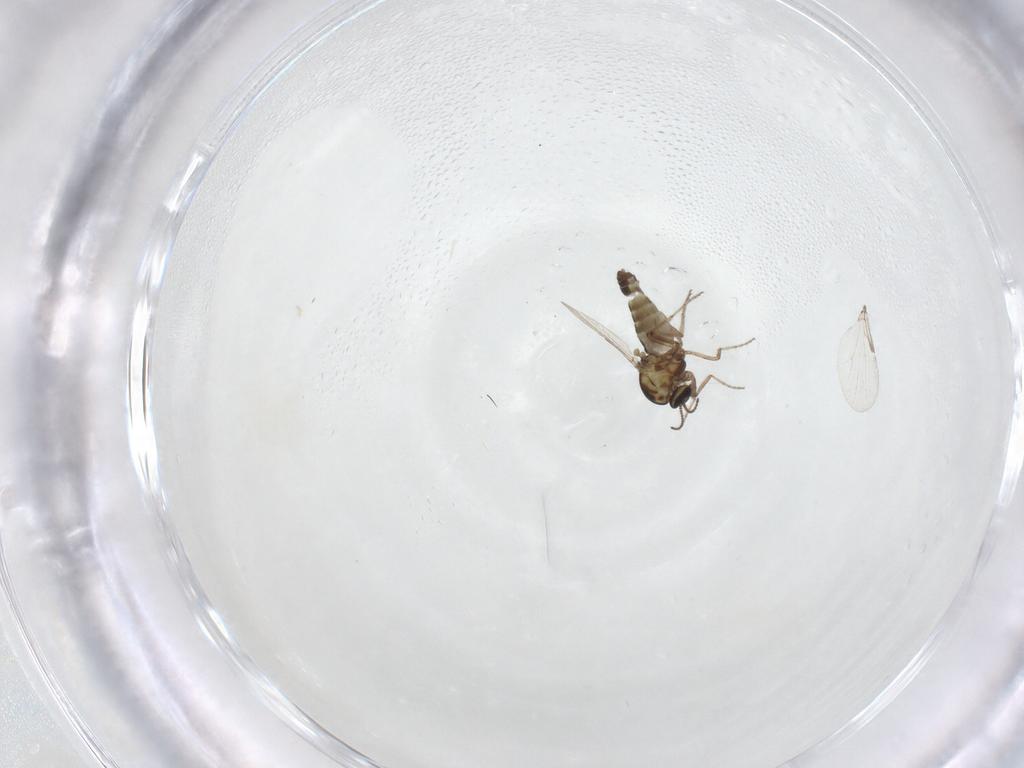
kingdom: Animalia
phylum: Arthropoda
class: Insecta
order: Diptera
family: Ceratopogonidae
